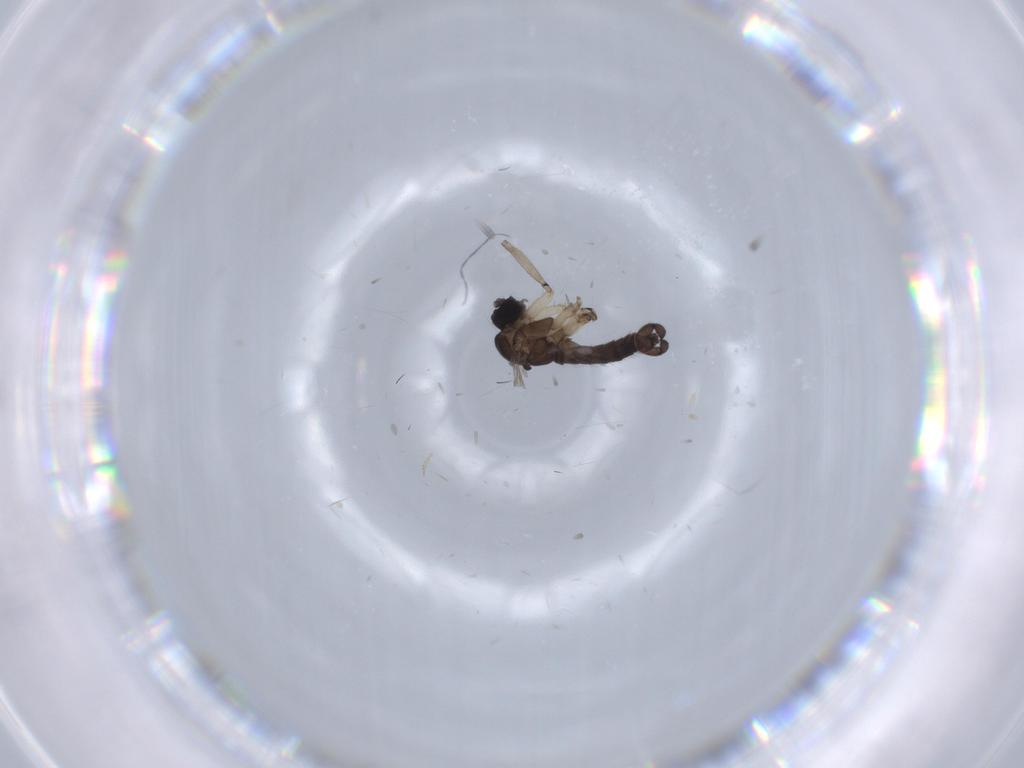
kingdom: Animalia
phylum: Arthropoda
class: Insecta
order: Diptera
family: Sciaridae
